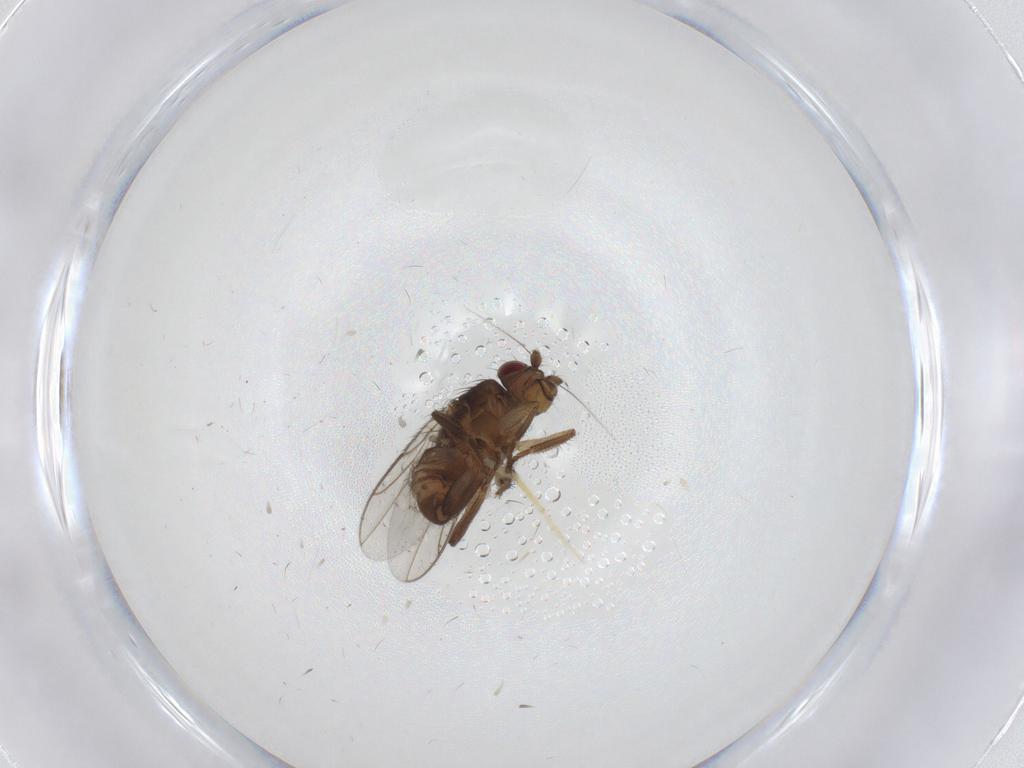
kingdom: Animalia
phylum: Arthropoda
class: Insecta
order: Diptera
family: Sphaeroceridae
